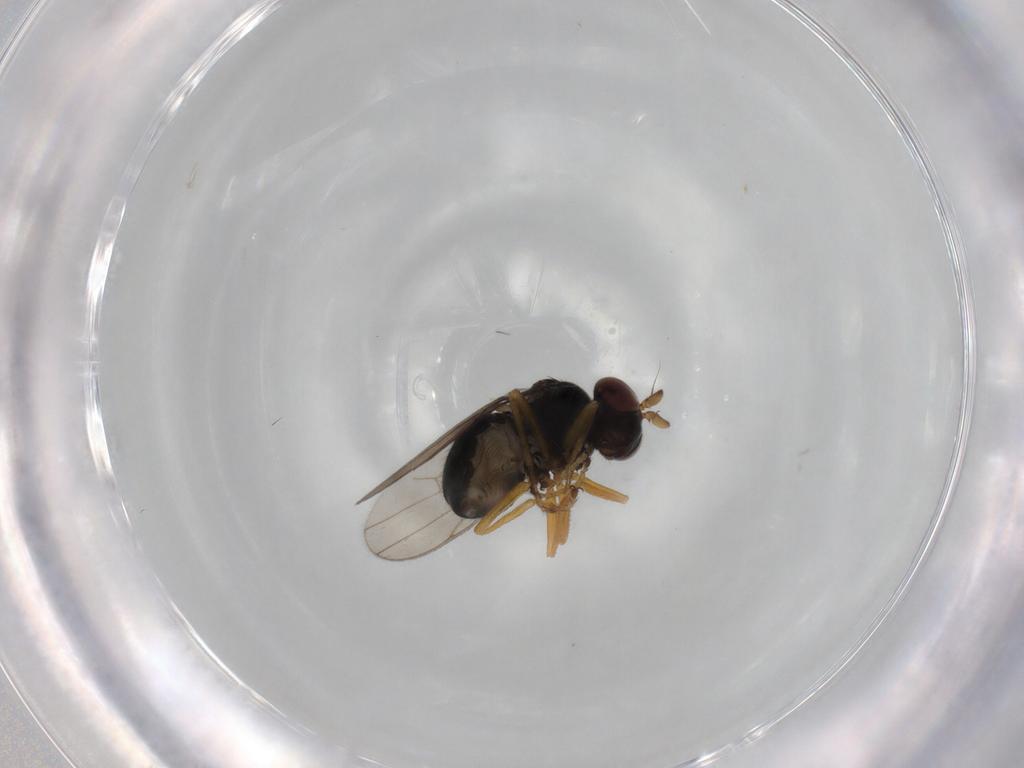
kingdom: Animalia
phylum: Arthropoda
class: Insecta
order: Diptera
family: Ephydridae
